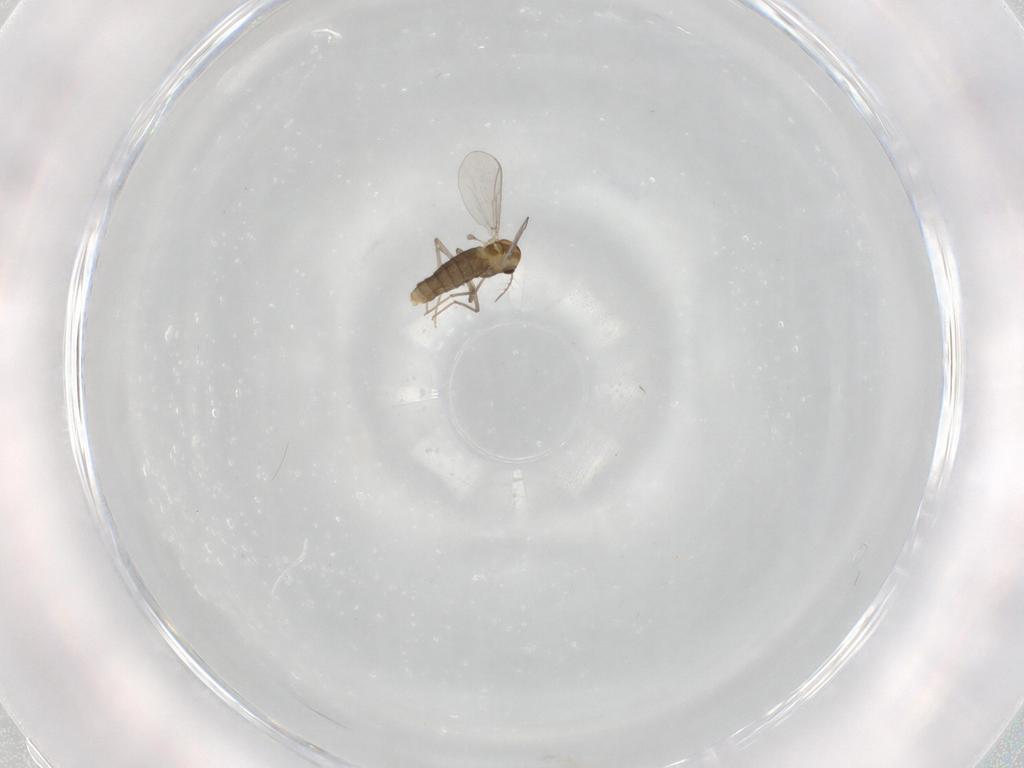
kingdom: Animalia
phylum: Arthropoda
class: Insecta
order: Diptera
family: Chironomidae
